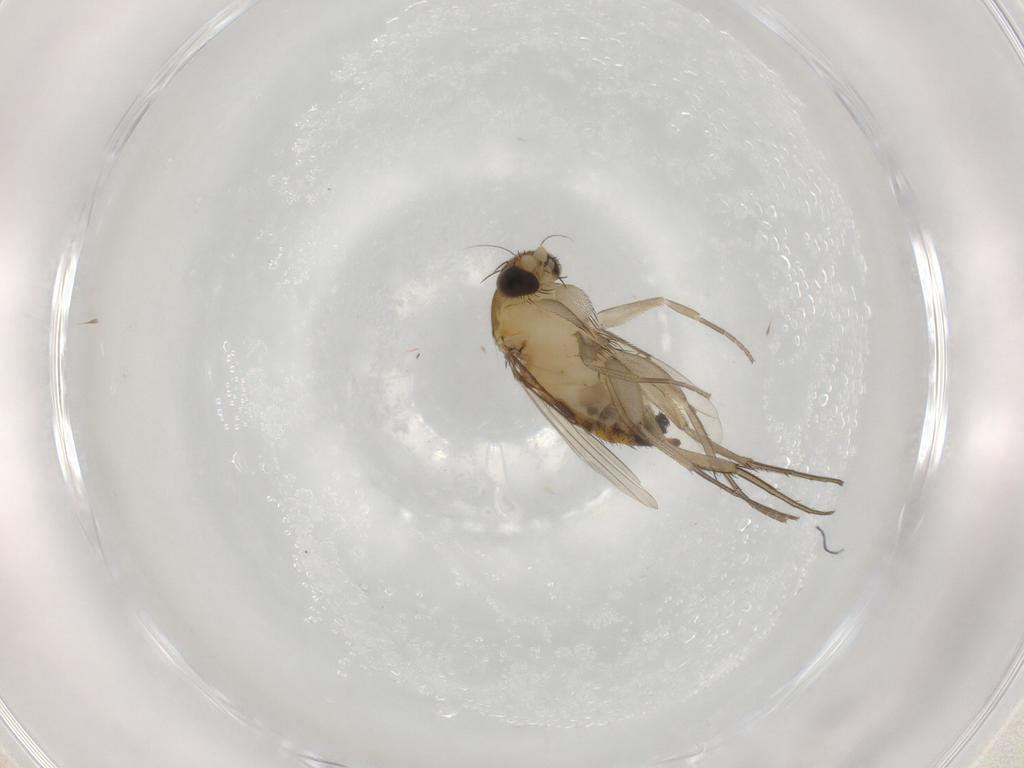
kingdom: Animalia
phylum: Arthropoda
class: Insecta
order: Diptera
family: Phoridae
